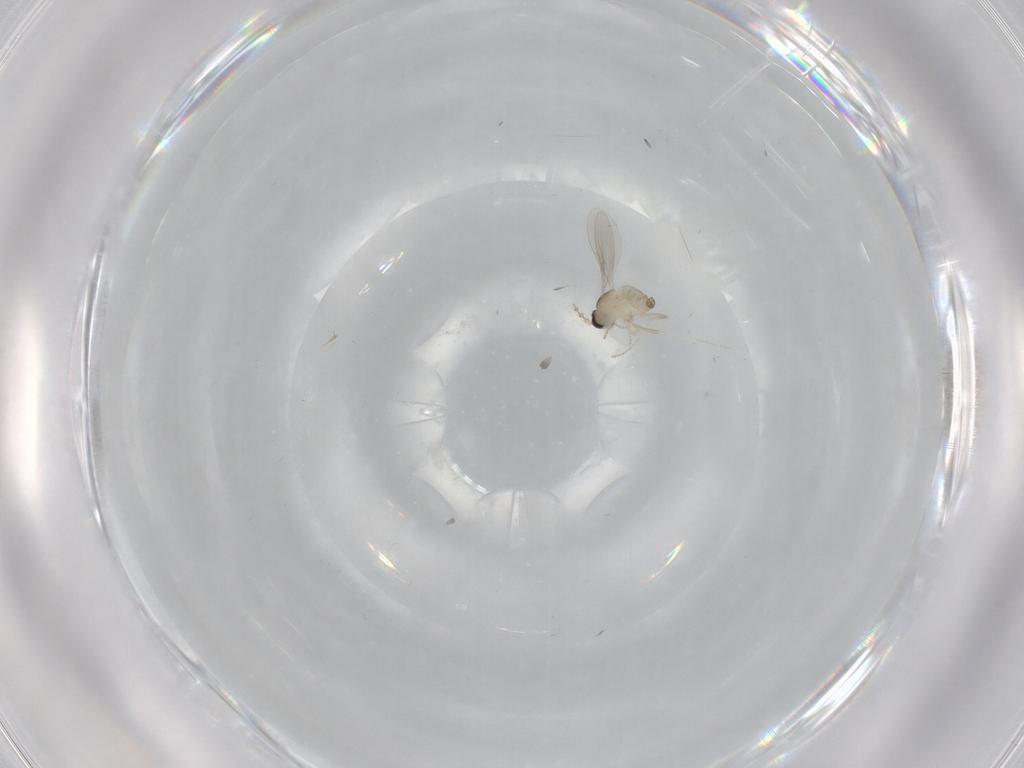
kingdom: Animalia
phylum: Arthropoda
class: Insecta
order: Diptera
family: Cecidomyiidae
